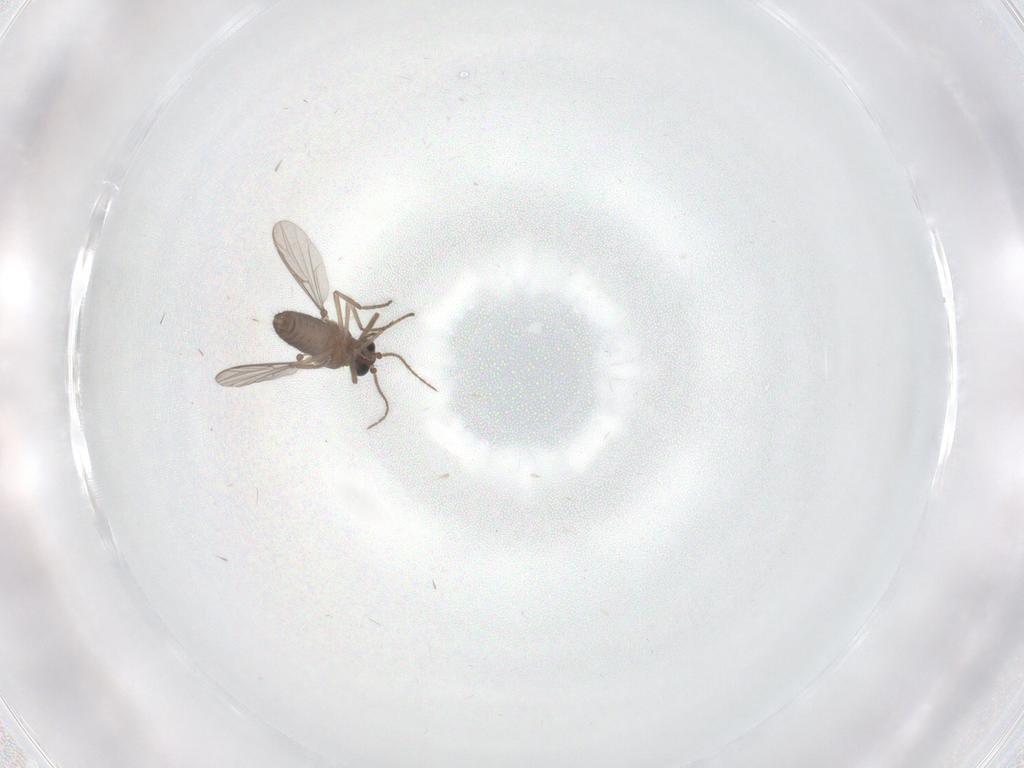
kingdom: Animalia
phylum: Arthropoda
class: Insecta
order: Diptera
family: Ceratopogonidae
